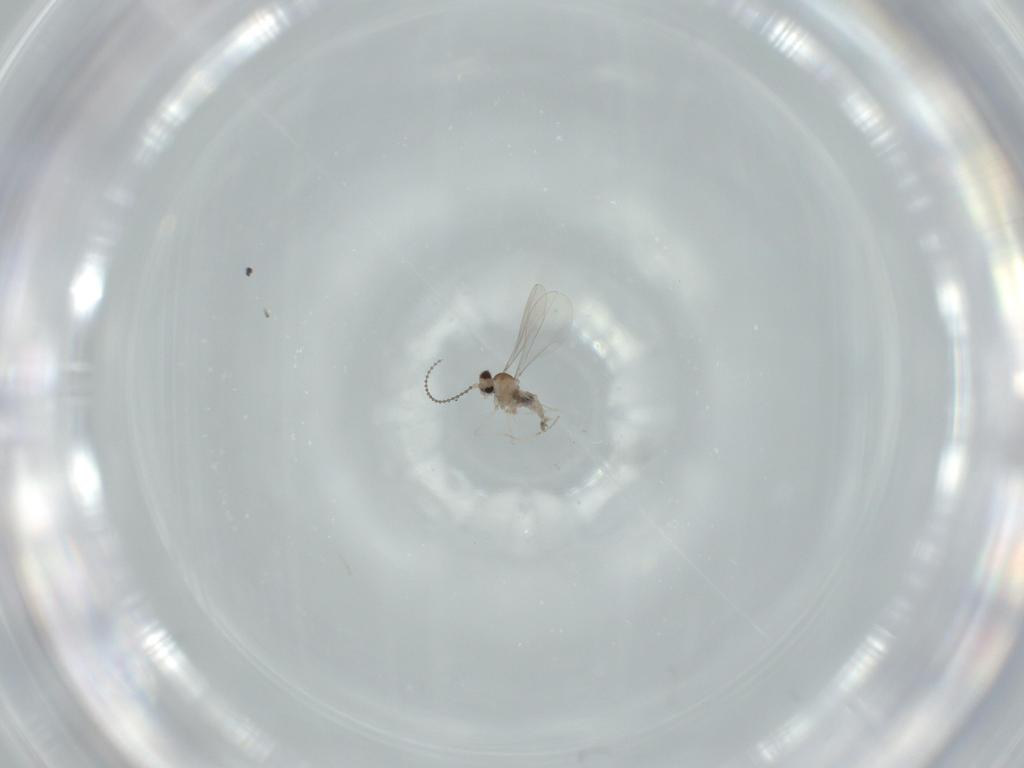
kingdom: Animalia
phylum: Arthropoda
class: Insecta
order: Diptera
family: Cecidomyiidae
